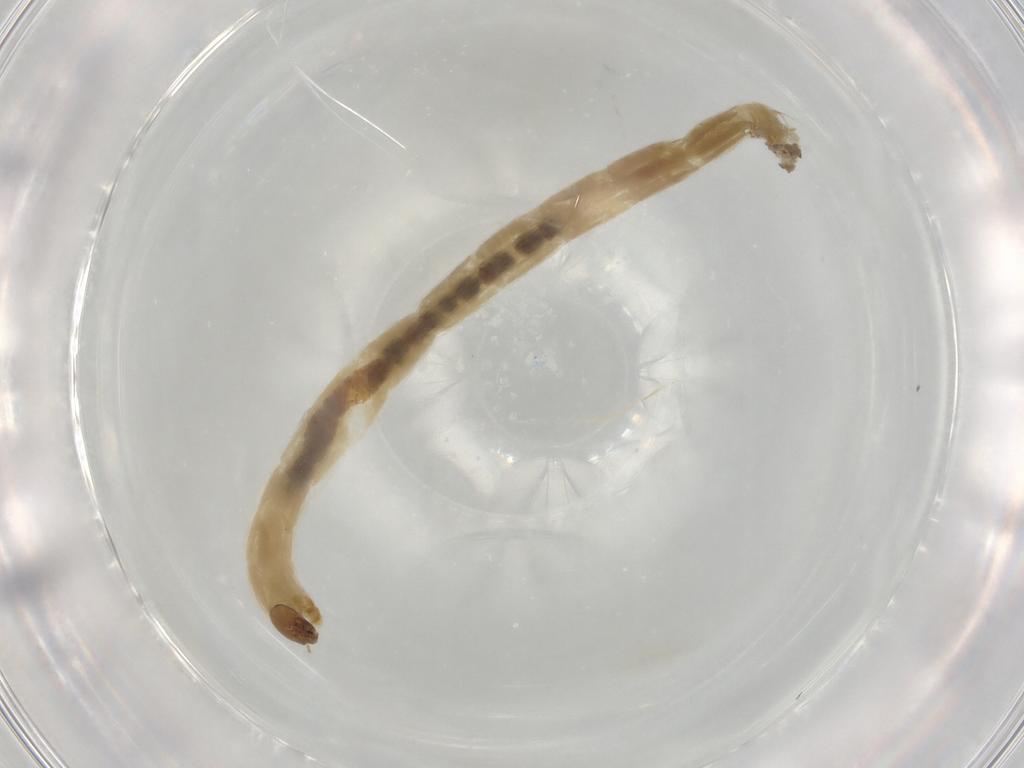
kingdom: Animalia
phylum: Arthropoda
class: Insecta
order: Diptera
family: Chironomidae
